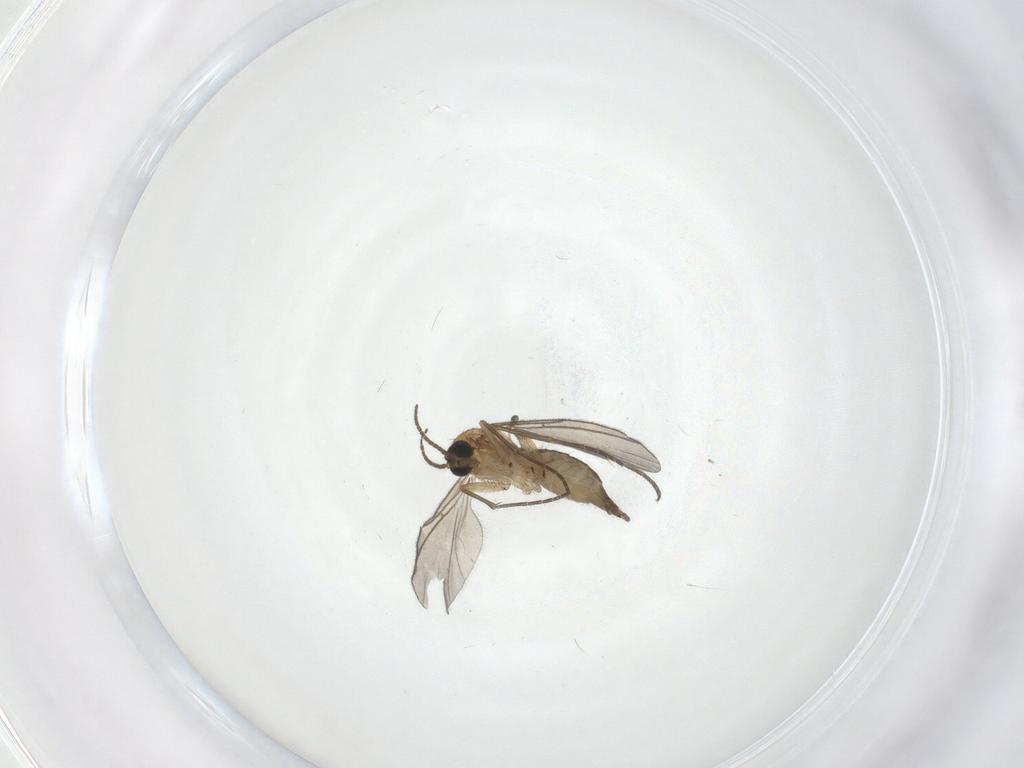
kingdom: Animalia
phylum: Arthropoda
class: Insecta
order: Diptera
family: Sciaridae
